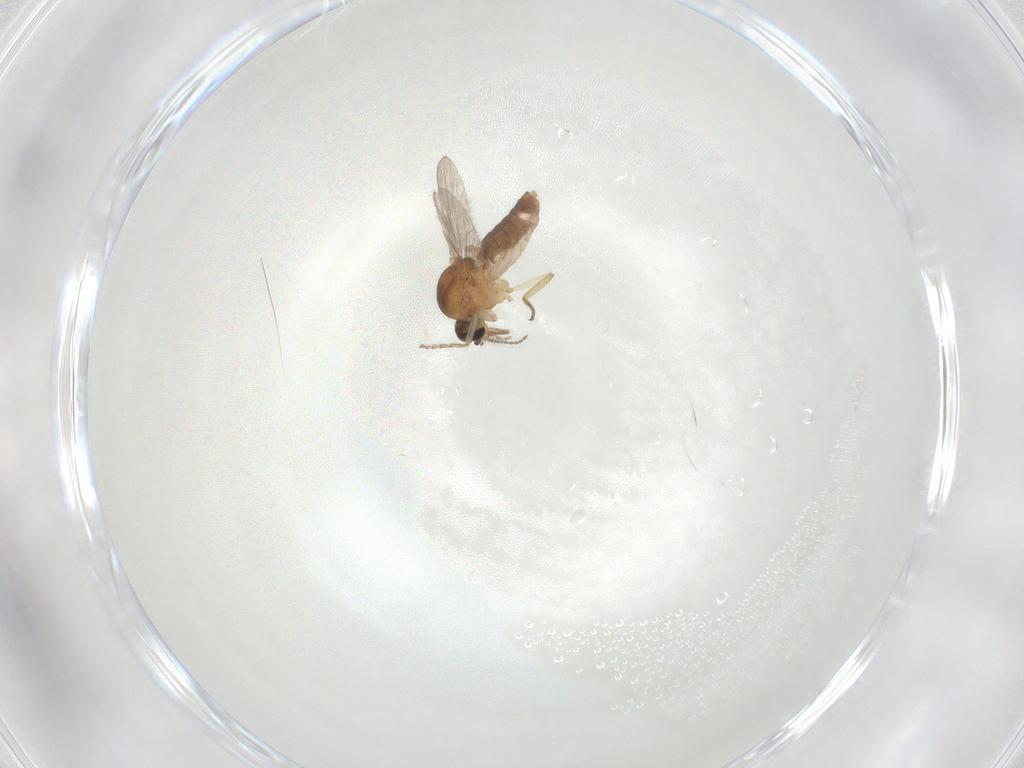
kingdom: Animalia
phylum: Arthropoda
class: Insecta
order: Diptera
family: Ceratopogonidae
